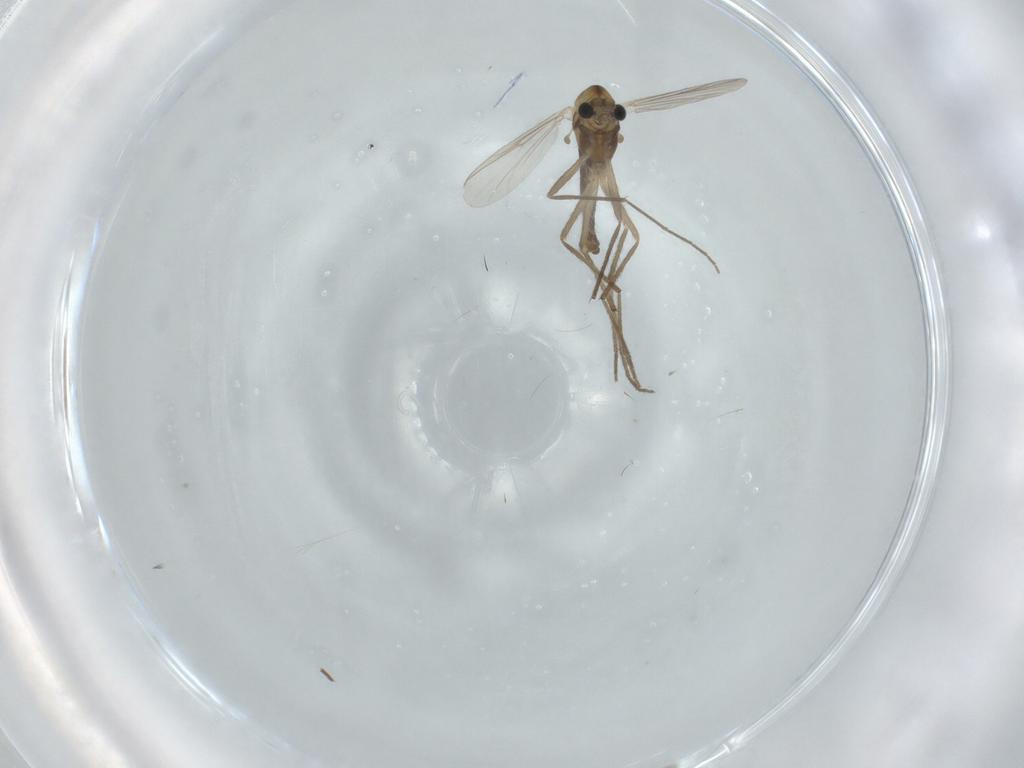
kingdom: Animalia
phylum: Arthropoda
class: Insecta
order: Diptera
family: Chironomidae
